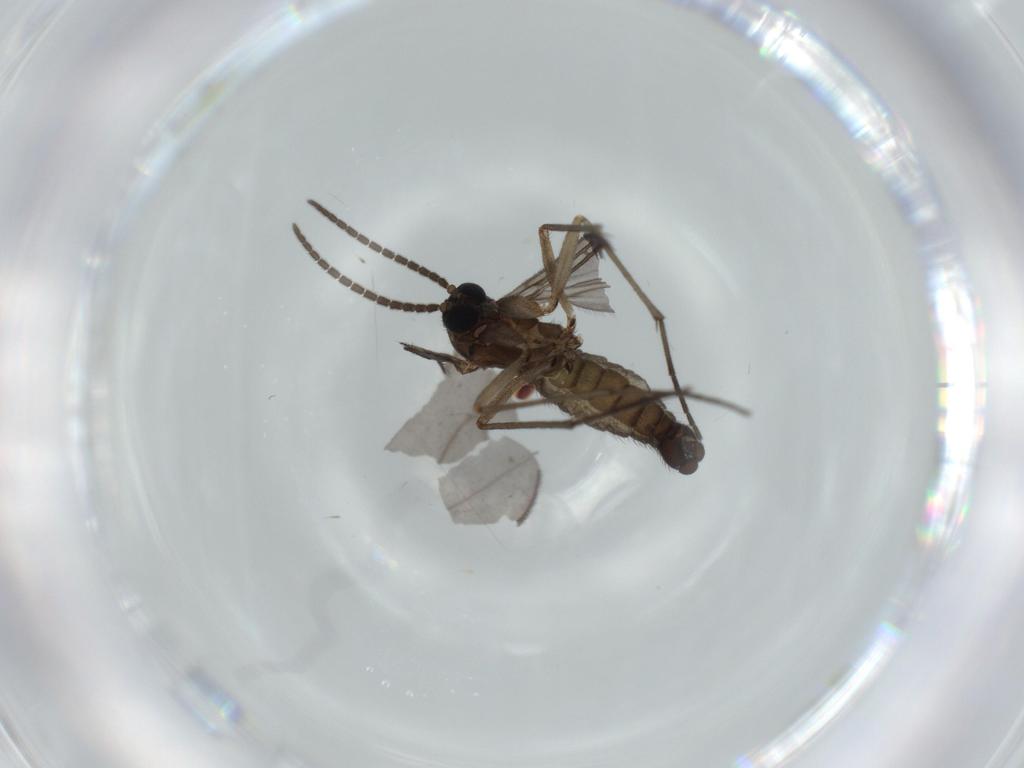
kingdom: Animalia
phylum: Arthropoda
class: Insecta
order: Diptera
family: Sciaridae
